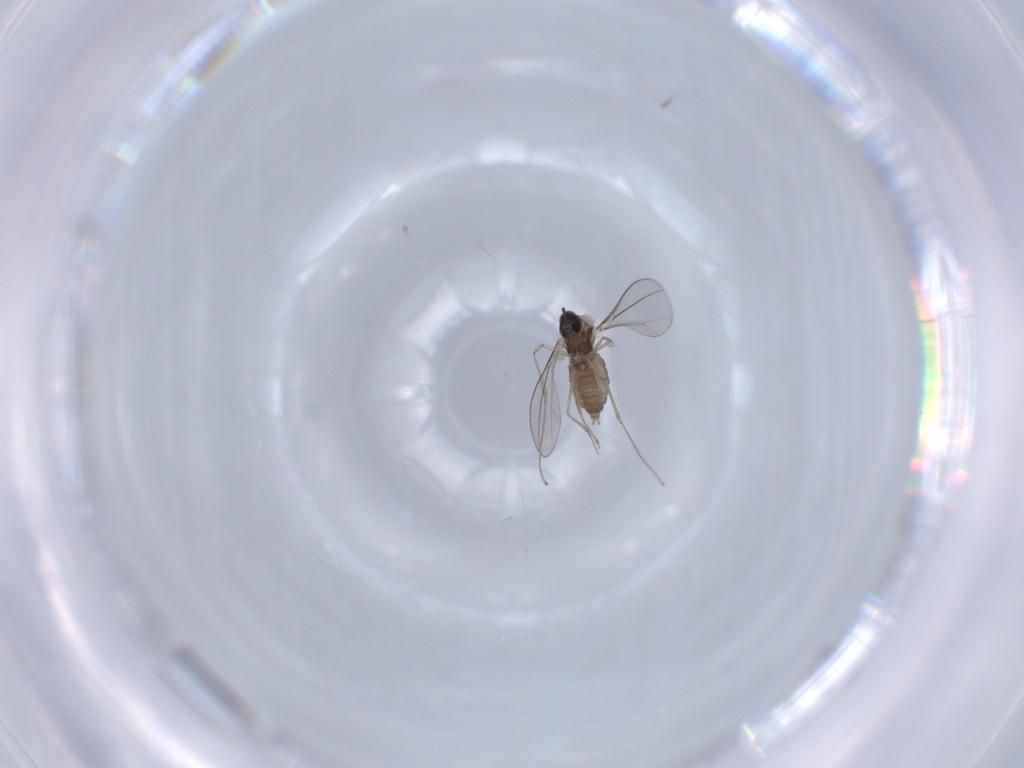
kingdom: Animalia
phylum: Arthropoda
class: Insecta
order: Diptera
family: Cecidomyiidae
